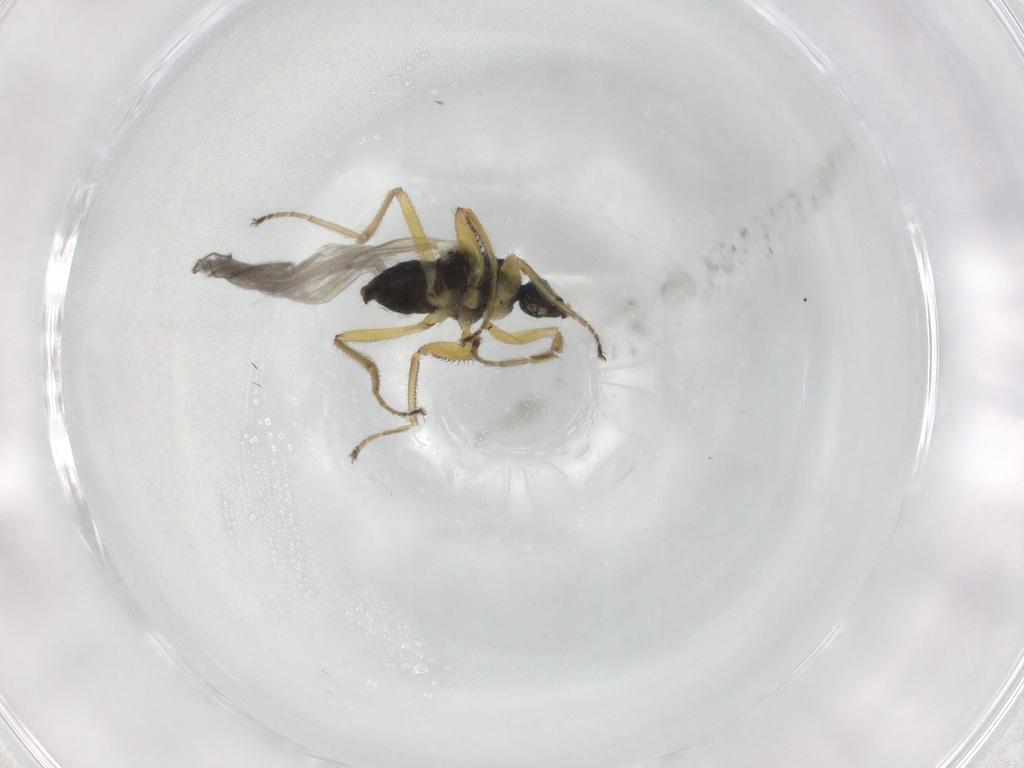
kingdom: Animalia
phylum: Arthropoda
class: Insecta
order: Diptera
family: Hybotidae
